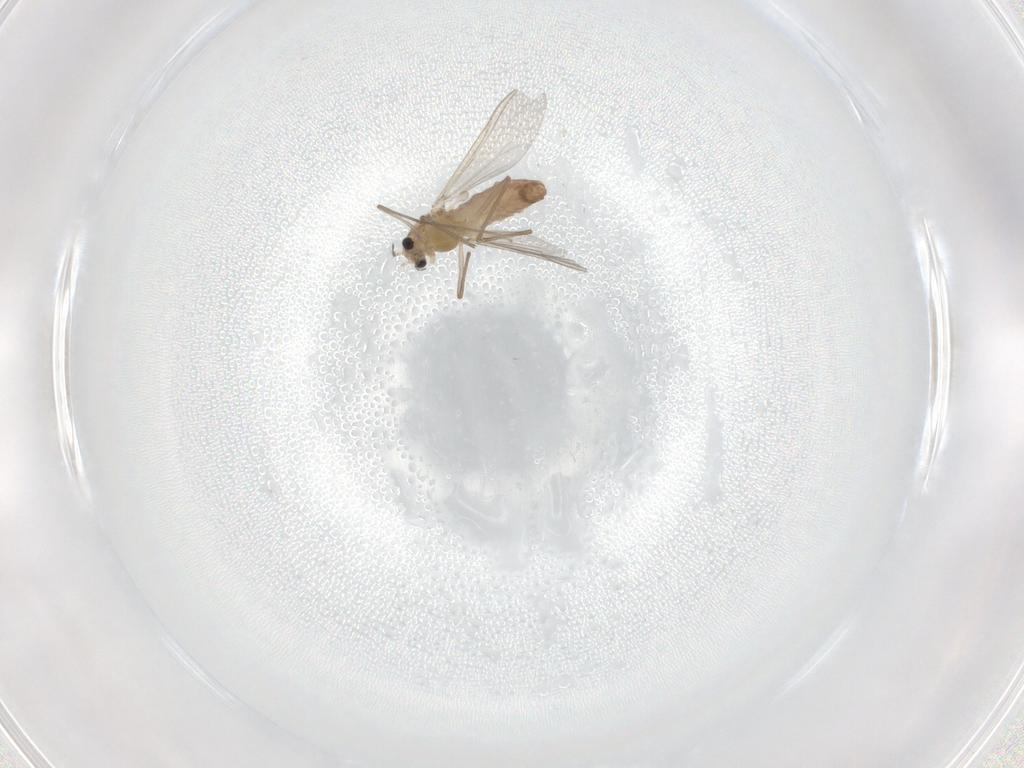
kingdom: Animalia
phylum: Arthropoda
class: Insecta
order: Diptera
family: Chironomidae
